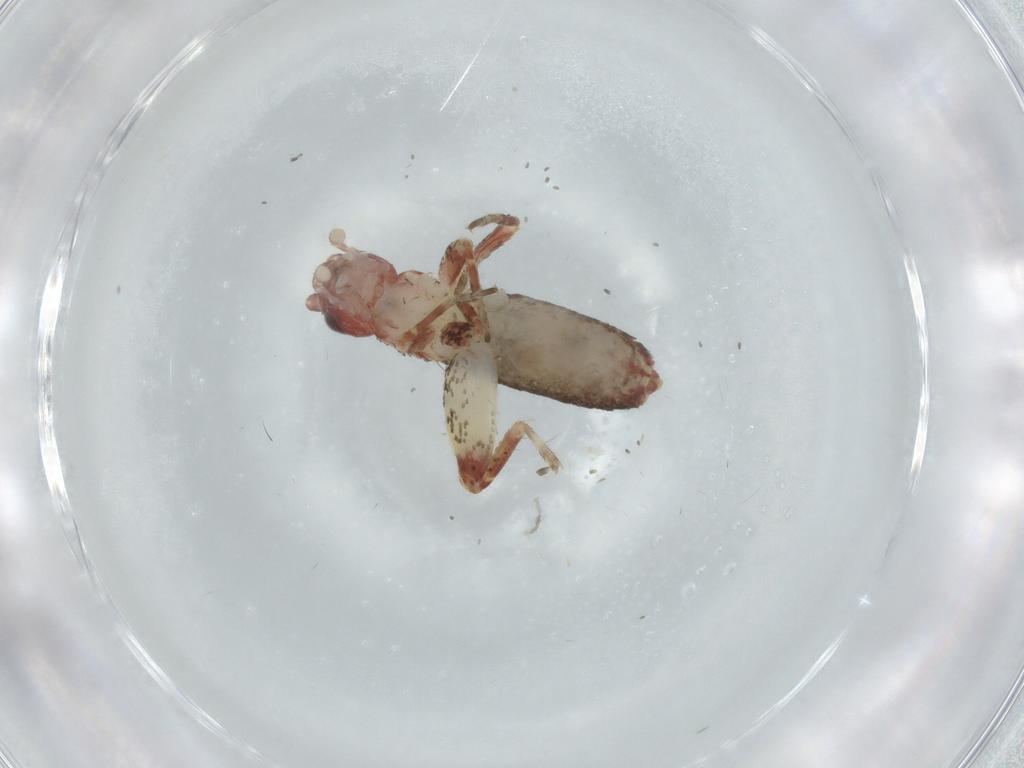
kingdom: Animalia
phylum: Arthropoda
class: Insecta
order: Orthoptera
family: Mogoplistidae
